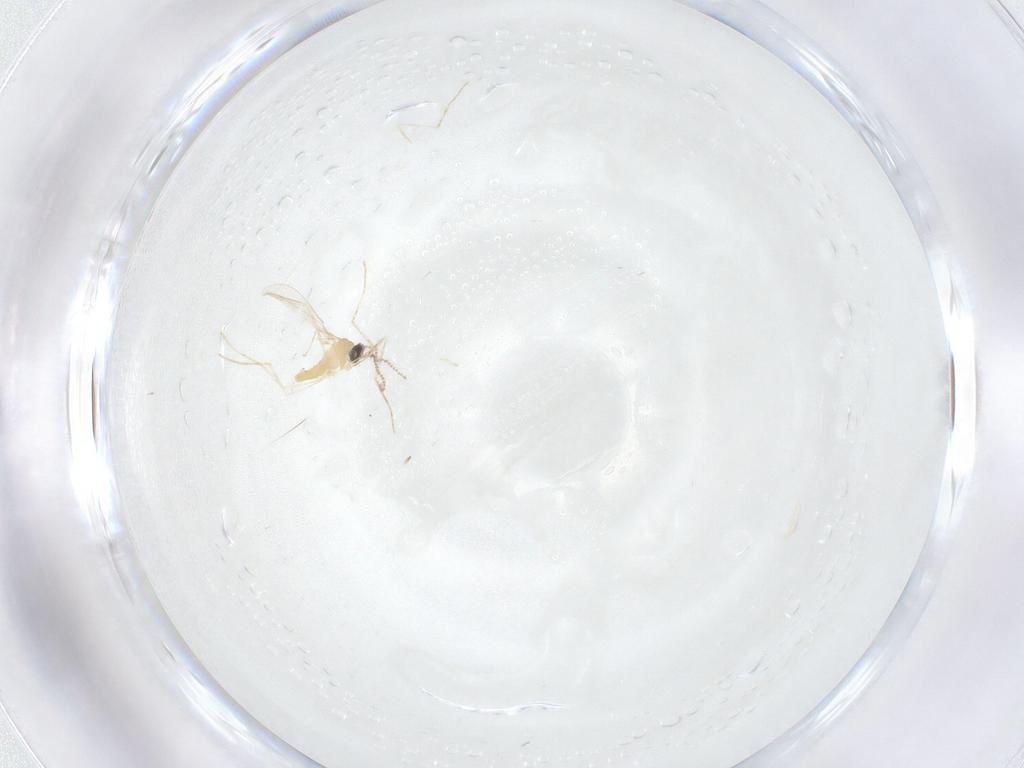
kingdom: Animalia
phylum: Arthropoda
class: Insecta
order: Diptera
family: Cecidomyiidae
